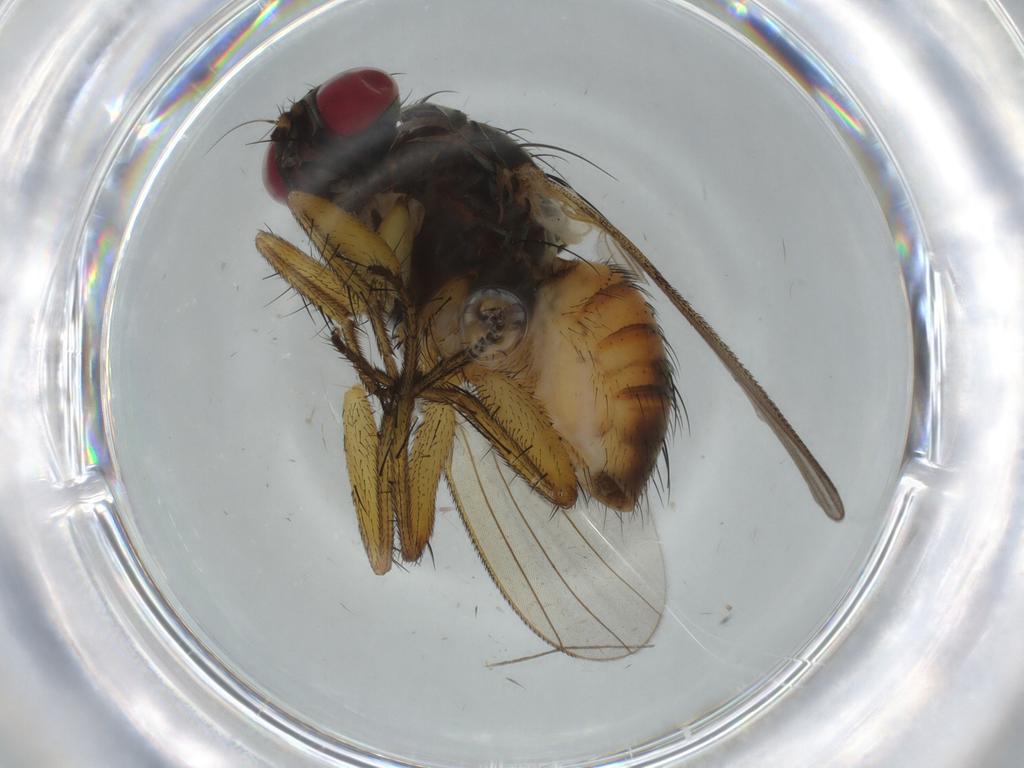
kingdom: Animalia
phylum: Arthropoda
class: Insecta
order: Diptera
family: Muscidae
